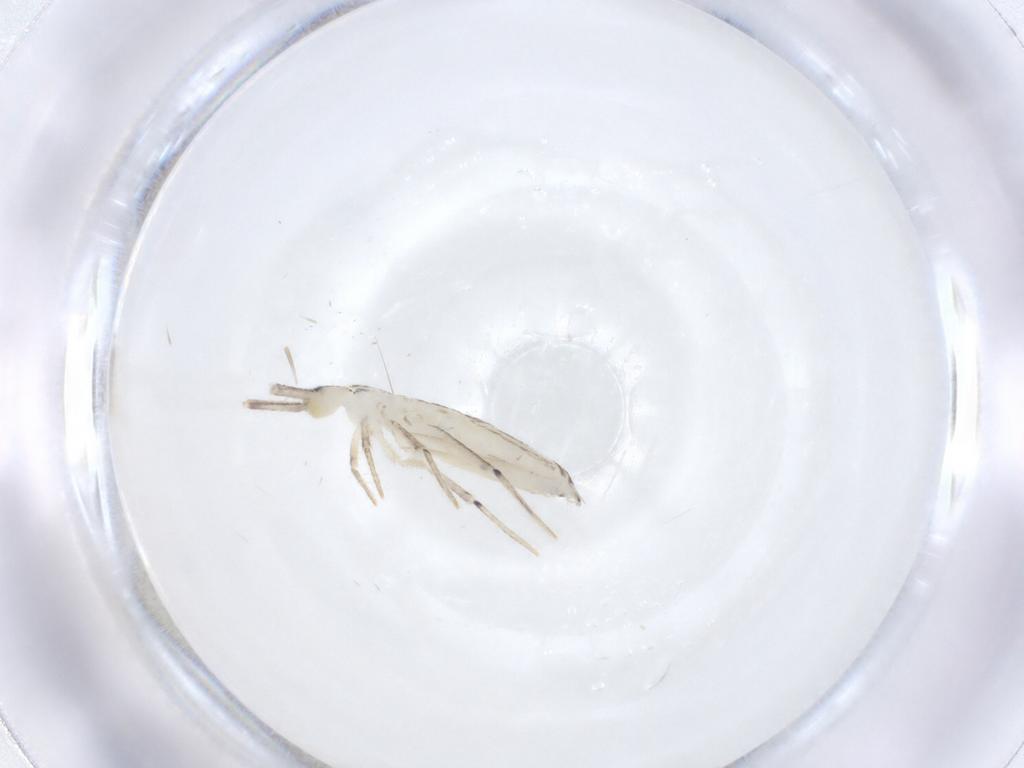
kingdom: Animalia
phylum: Arthropoda
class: Collembola
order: Entomobryomorpha
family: Entomobryidae
